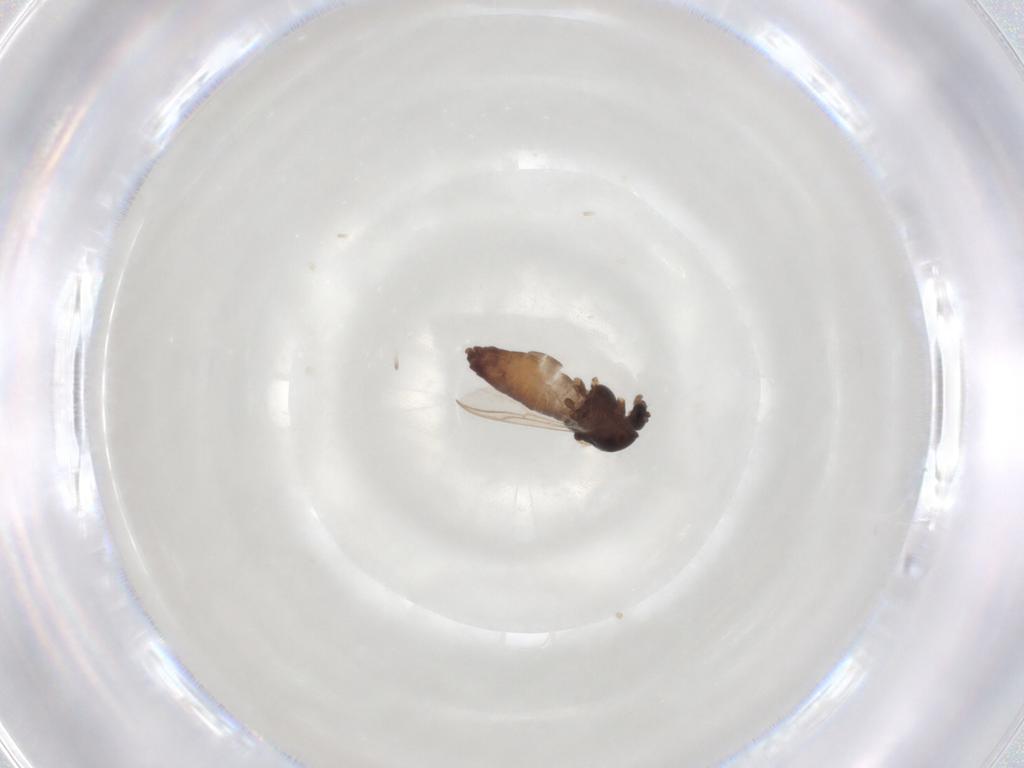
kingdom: Animalia
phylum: Arthropoda
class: Insecta
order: Diptera
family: Chironomidae
